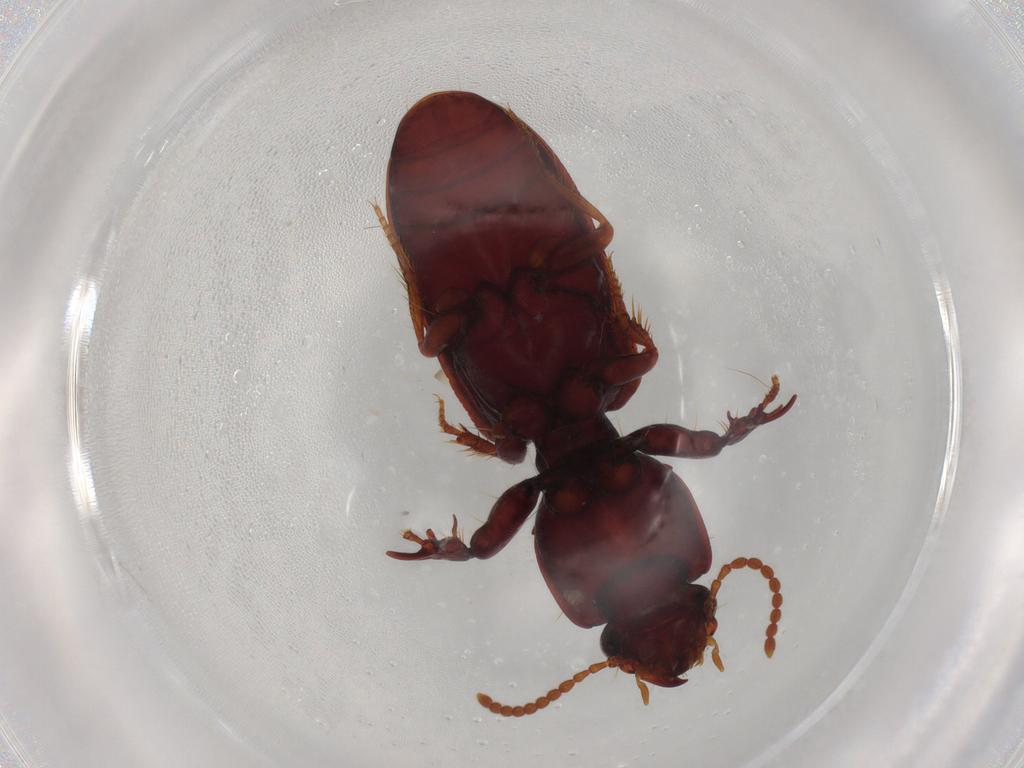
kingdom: Animalia
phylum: Arthropoda
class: Insecta
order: Coleoptera
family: Carabidae
